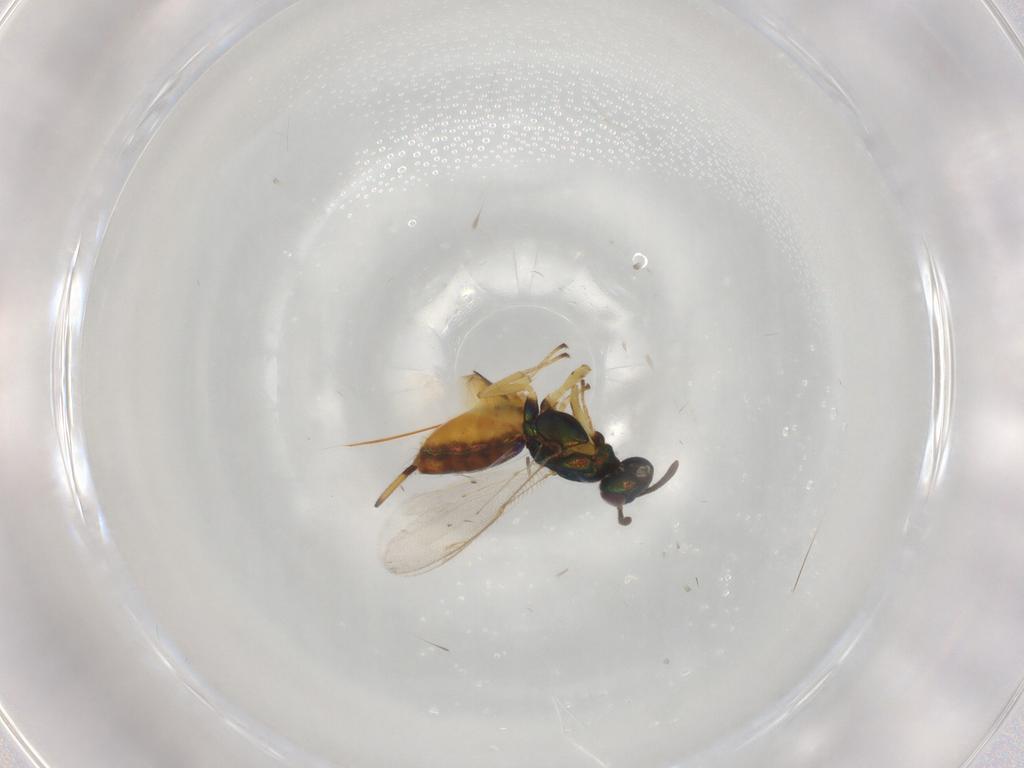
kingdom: Animalia
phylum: Arthropoda
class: Insecta
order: Hymenoptera
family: Eupelmidae
